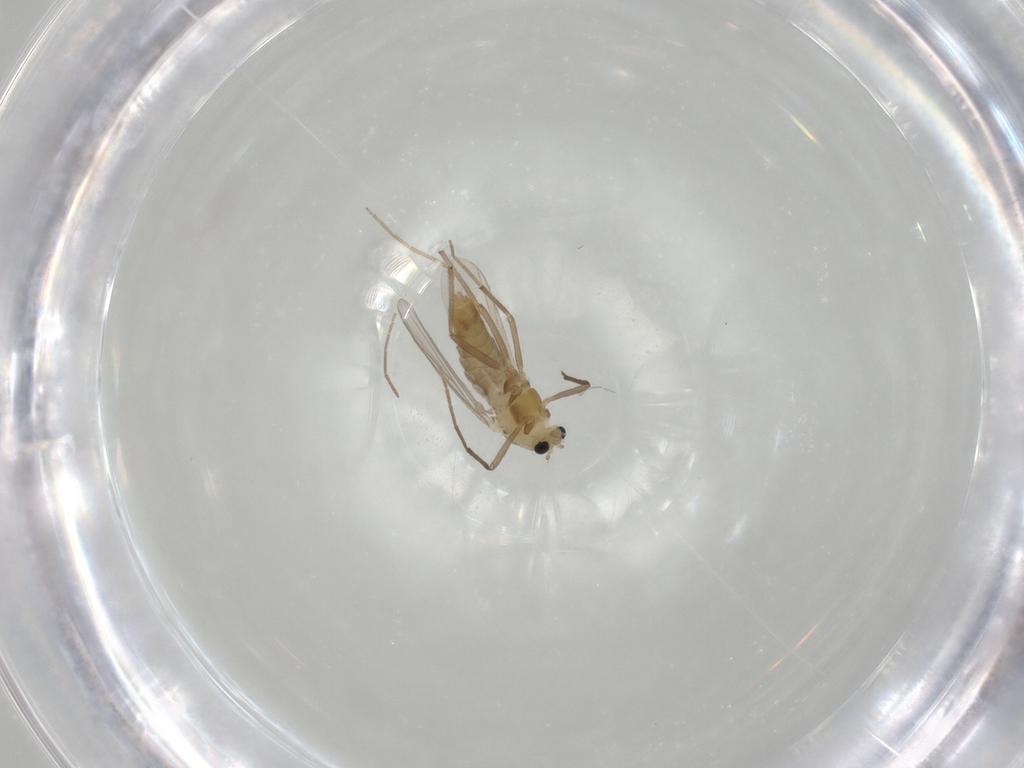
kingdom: Animalia
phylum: Arthropoda
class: Insecta
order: Diptera
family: Chironomidae
